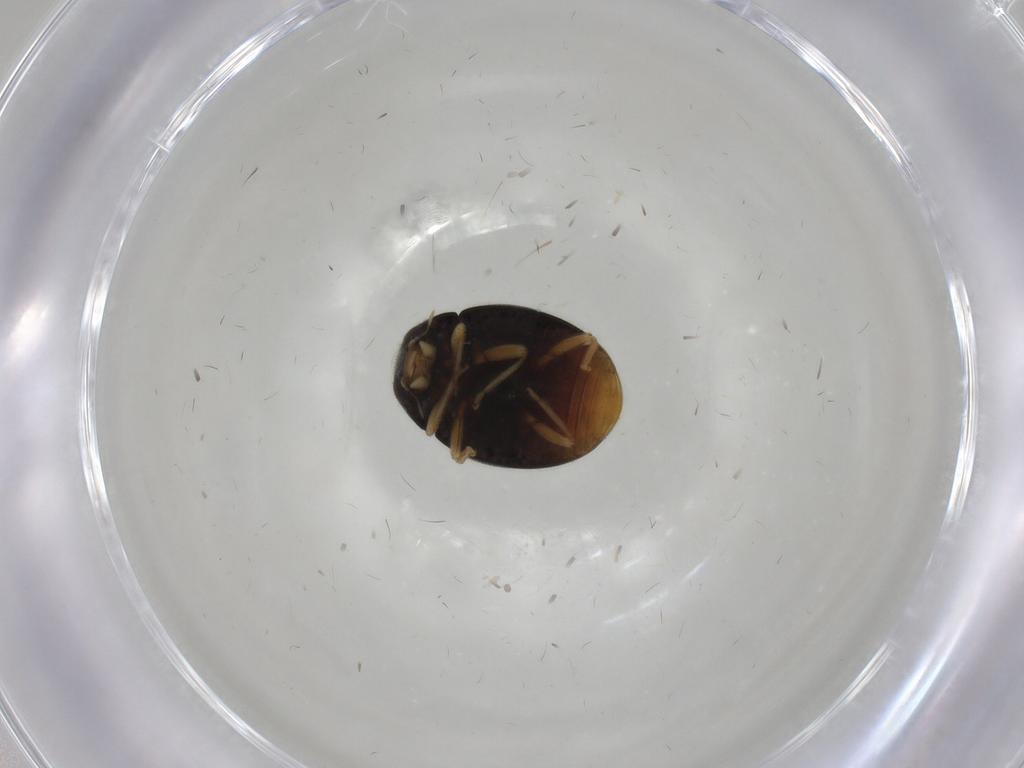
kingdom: Animalia
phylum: Arthropoda
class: Insecta
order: Coleoptera
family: Coccinellidae
